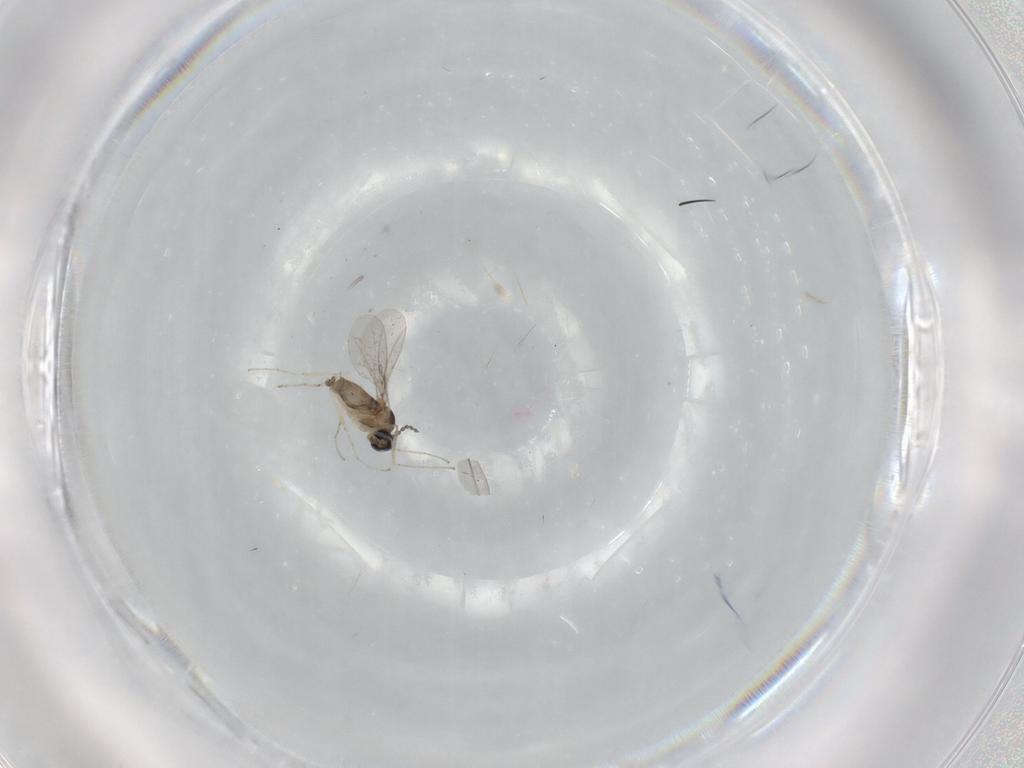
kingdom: Animalia
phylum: Arthropoda
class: Insecta
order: Diptera
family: Cecidomyiidae
